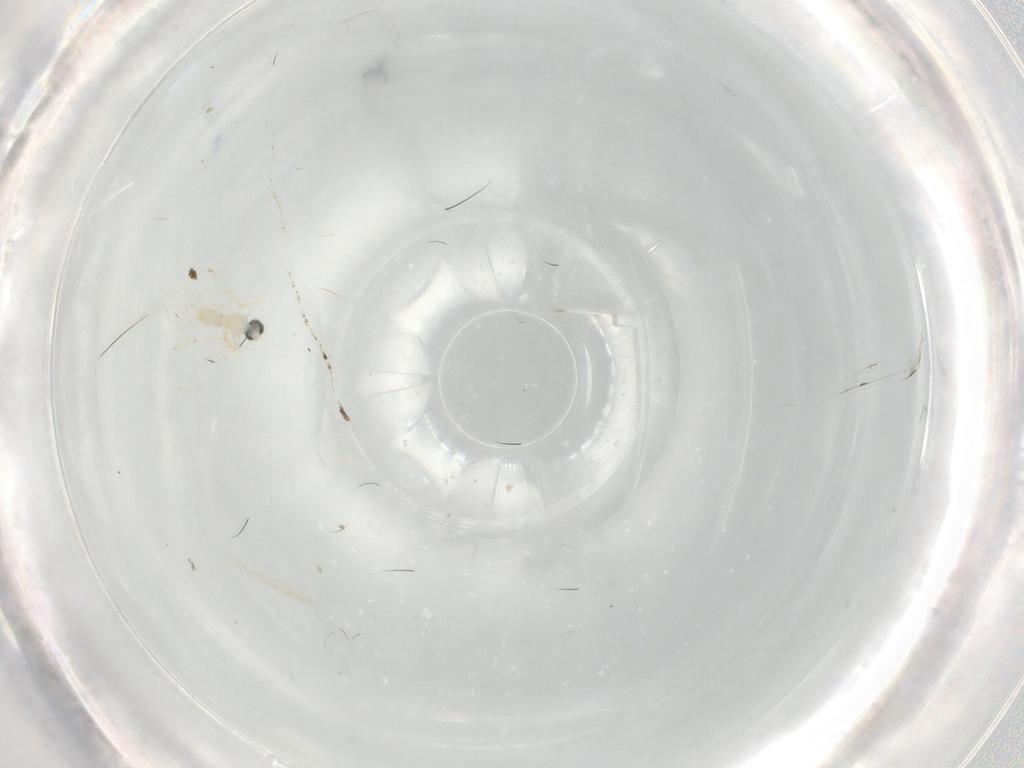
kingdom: Animalia
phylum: Arthropoda
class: Insecta
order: Diptera
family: Cecidomyiidae
